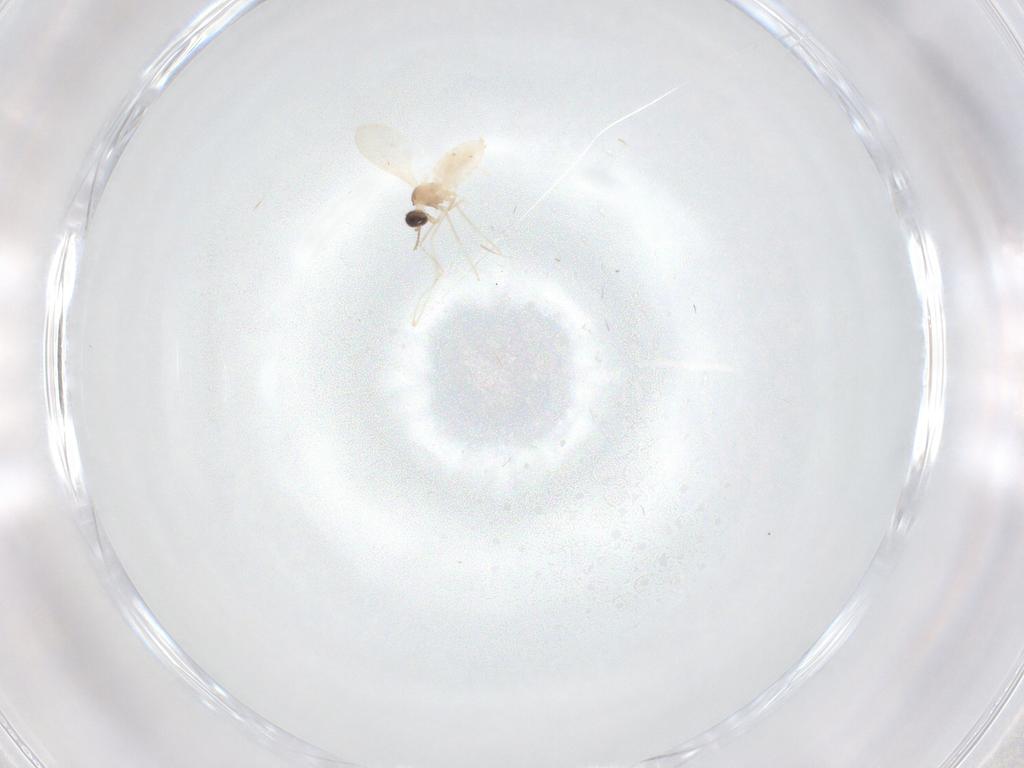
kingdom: Animalia
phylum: Arthropoda
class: Insecta
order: Diptera
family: Cecidomyiidae
